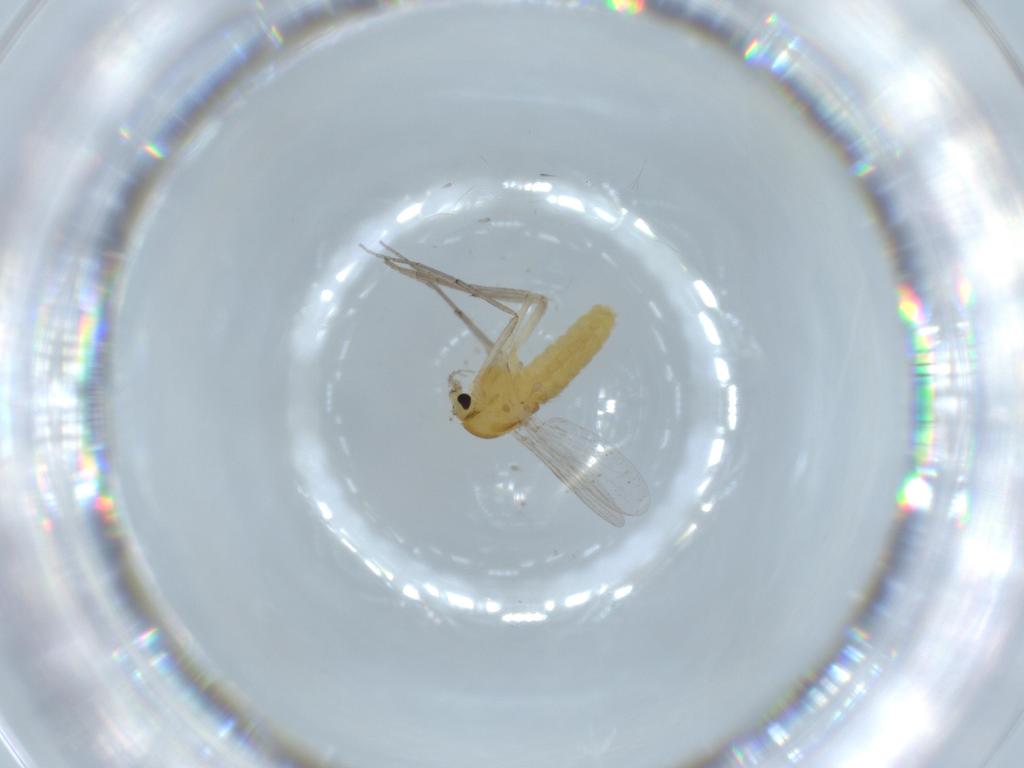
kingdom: Animalia
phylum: Arthropoda
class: Insecta
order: Diptera
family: Chironomidae
